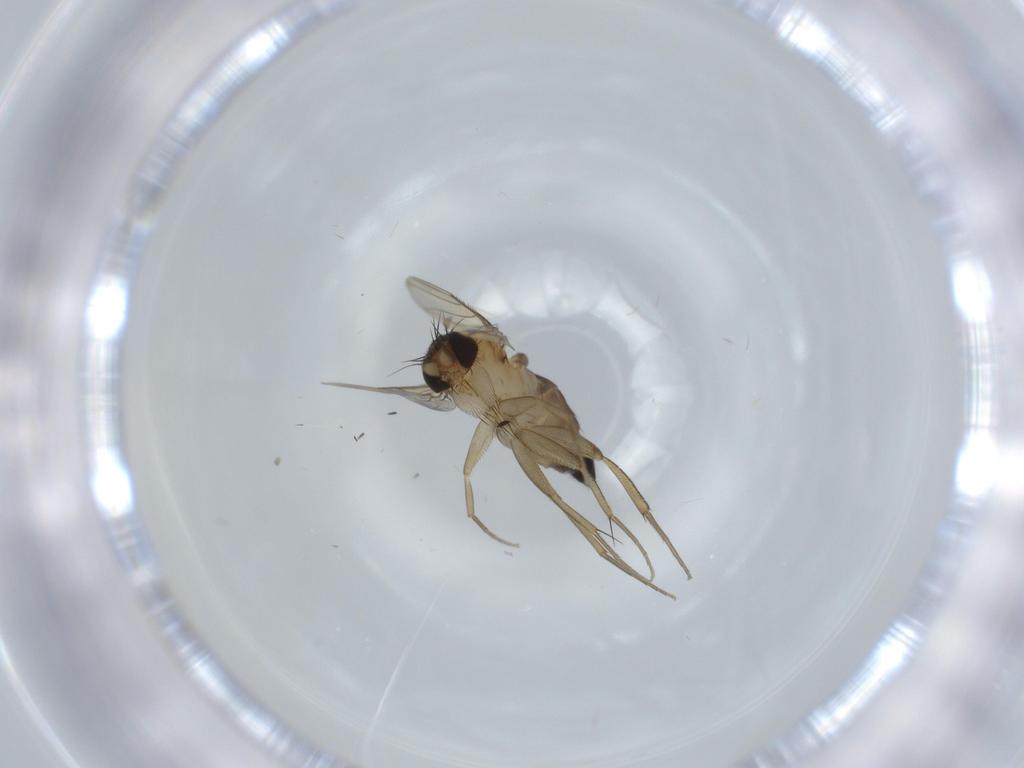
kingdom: Animalia
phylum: Arthropoda
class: Insecta
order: Diptera
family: Phoridae
